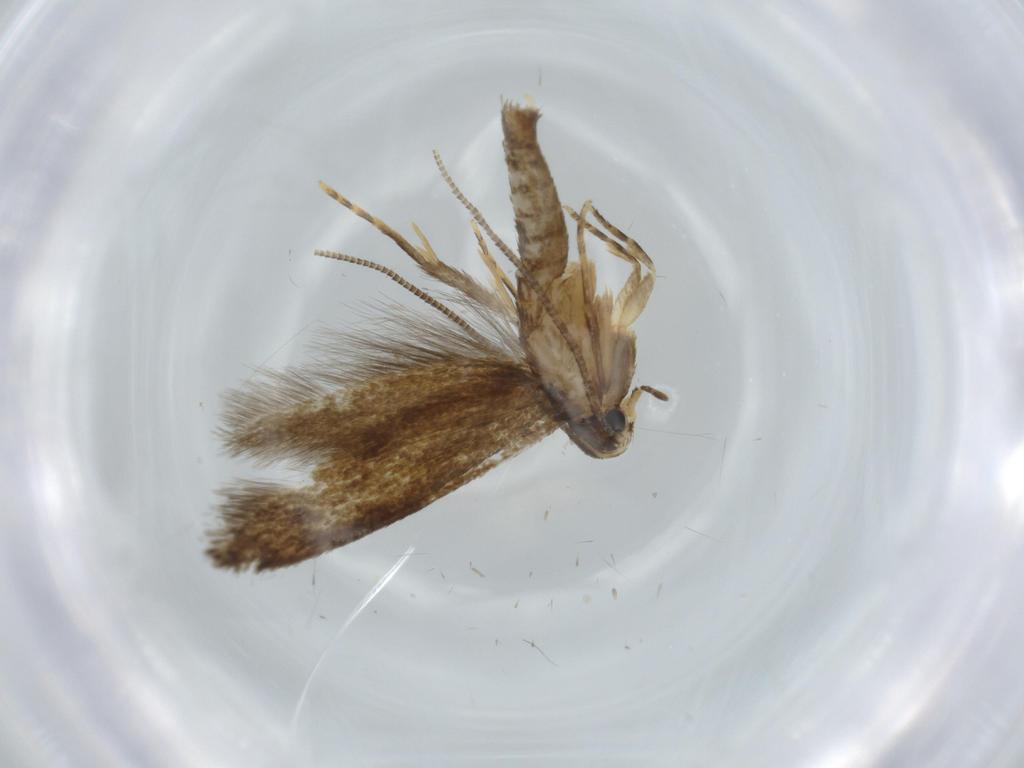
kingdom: Animalia
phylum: Arthropoda
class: Insecta
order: Lepidoptera
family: Tineidae
